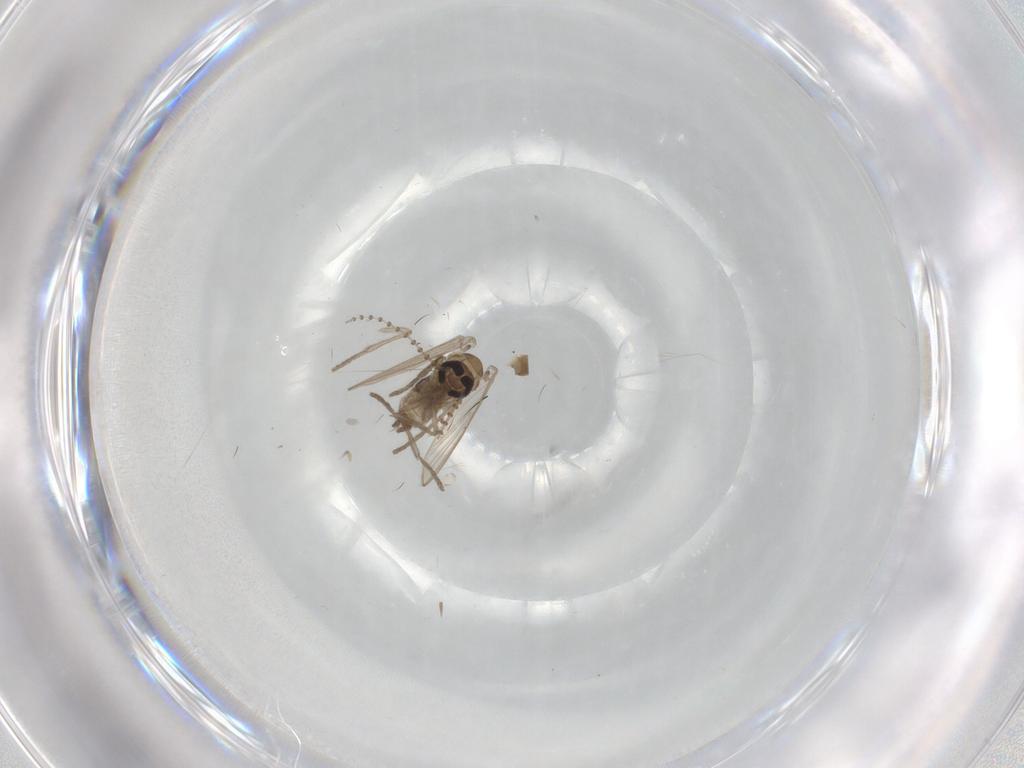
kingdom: Animalia
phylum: Arthropoda
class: Insecta
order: Diptera
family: Psychodidae
